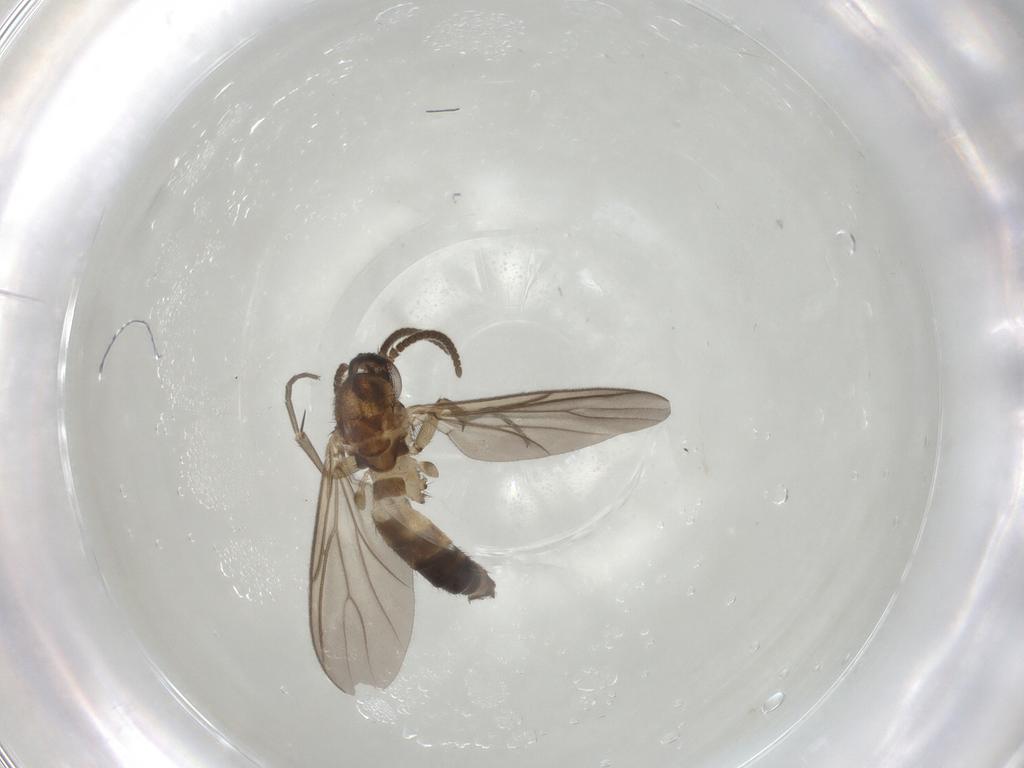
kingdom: Animalia
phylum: Arthropoda
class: Insecta
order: Diptera
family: Mycetophilidae
